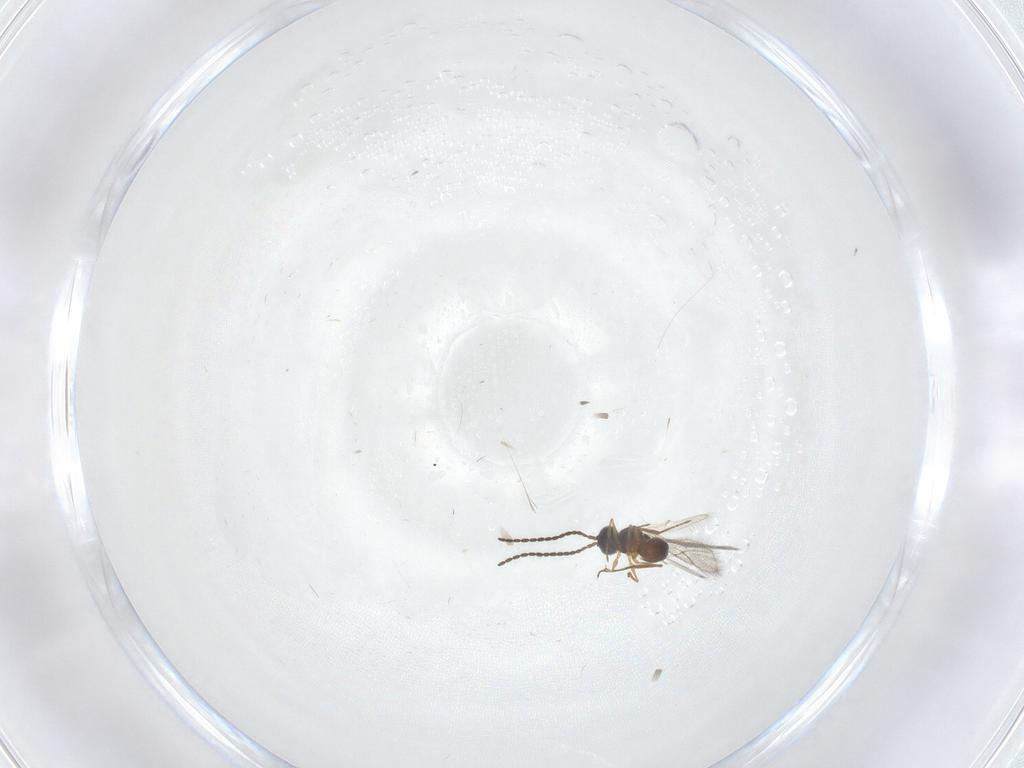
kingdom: Animalia
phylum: Arthropoda
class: Insecta
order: Hymenoptera
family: Figitidae
